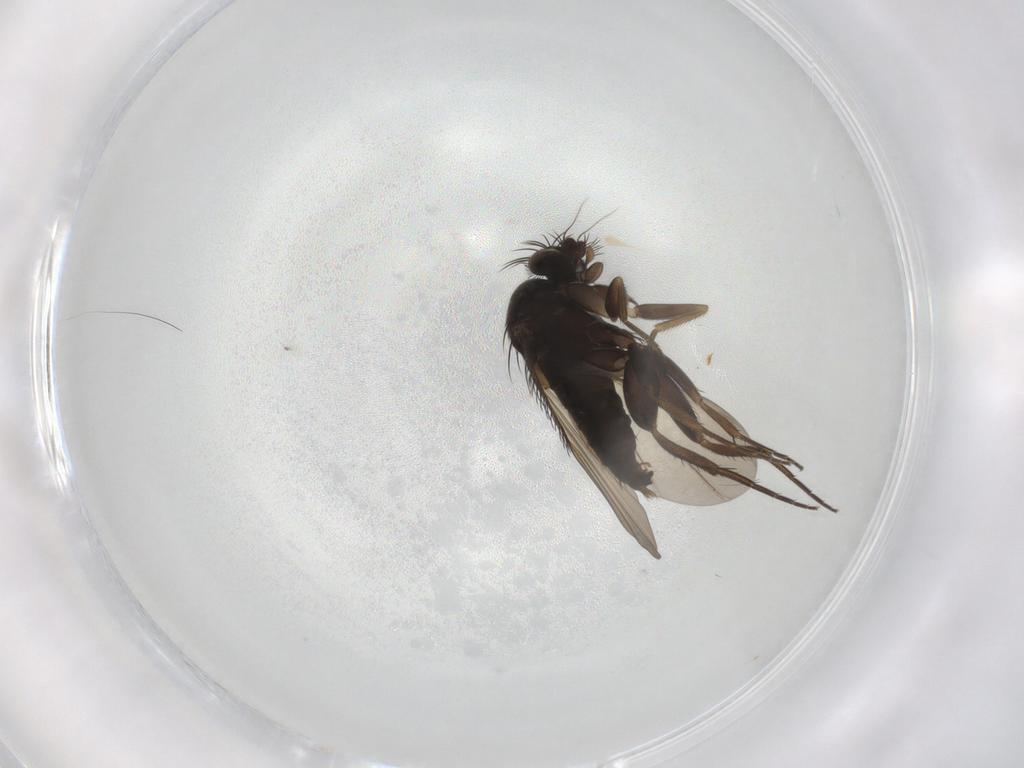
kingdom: Animalia
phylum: Arthropoda
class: Insecta
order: Diptera
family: Phoridae
